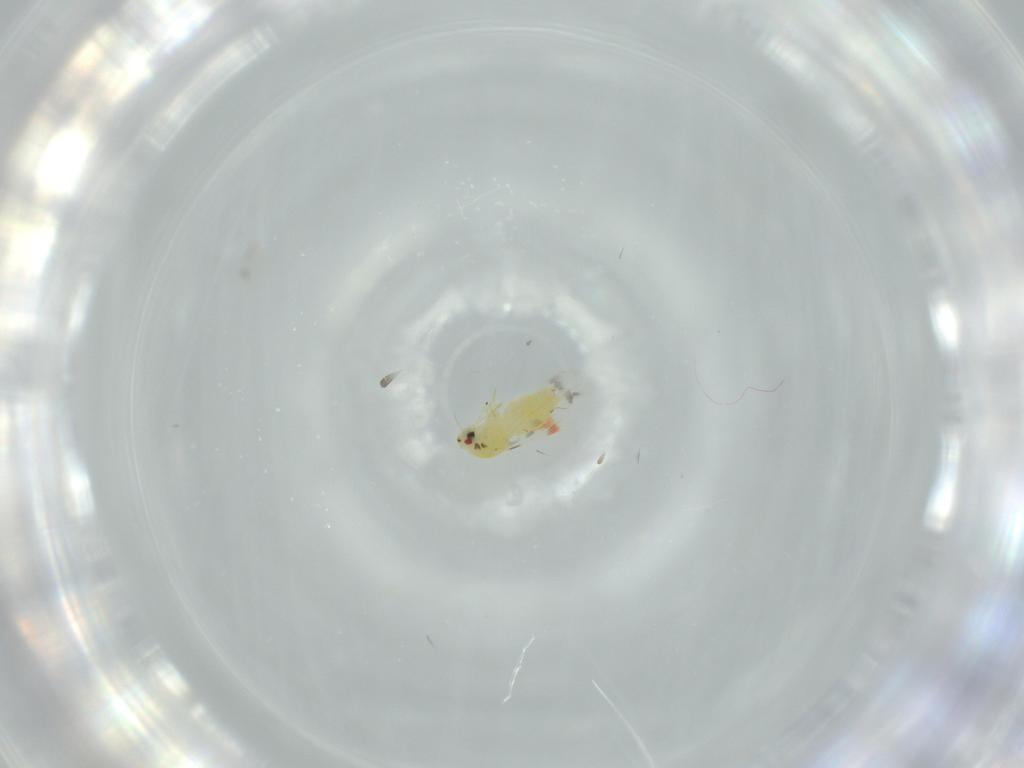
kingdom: Animalia
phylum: Arthropoda
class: Insecta
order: Hemiptera
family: Aleyrodidae
